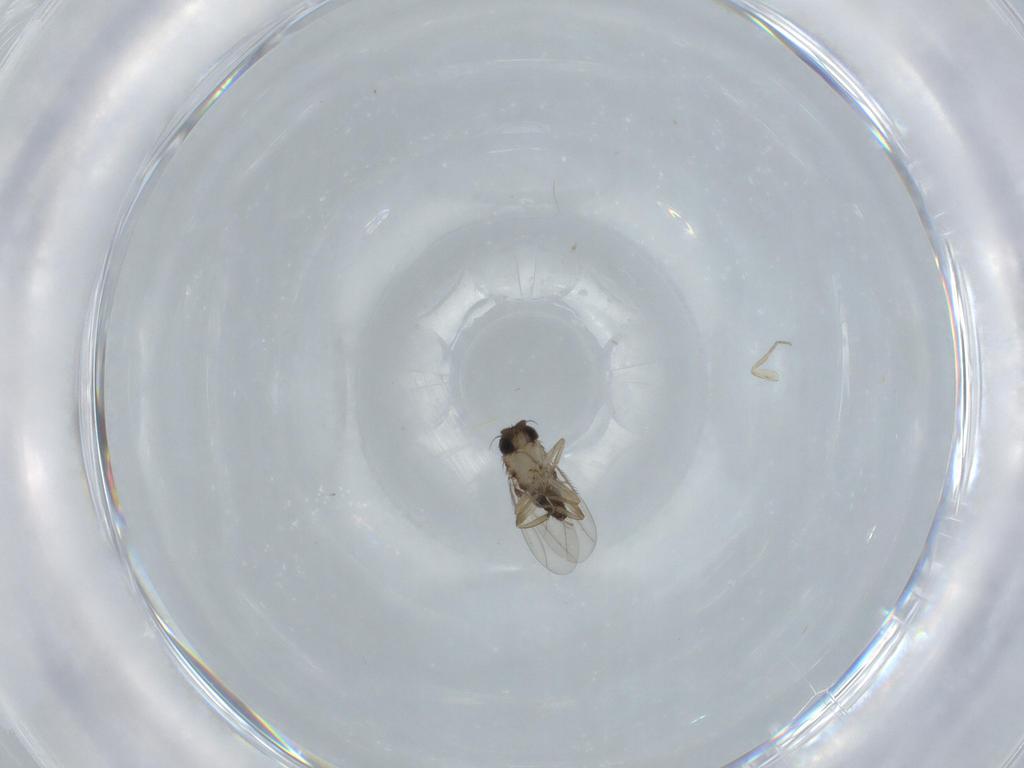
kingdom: Animalia
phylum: Arthropoda
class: Insecta
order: Diptera
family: Phoridae
